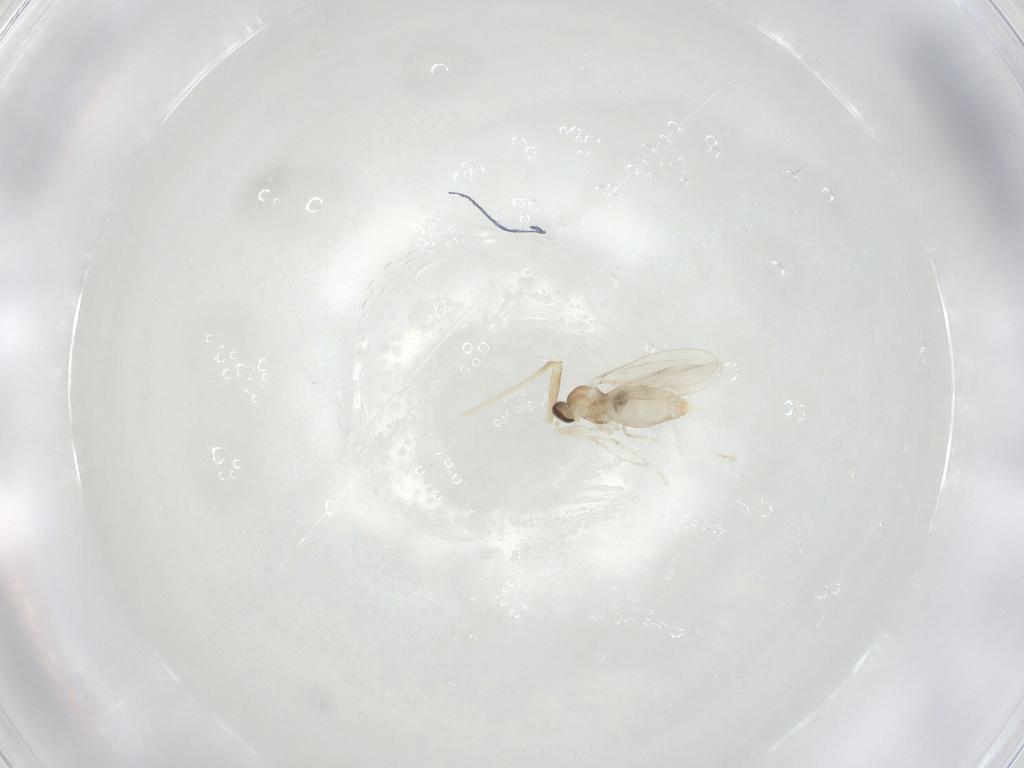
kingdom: Animalia
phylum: Arthropoda
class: Insecta
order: Diptera
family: Cecidomyiidae
